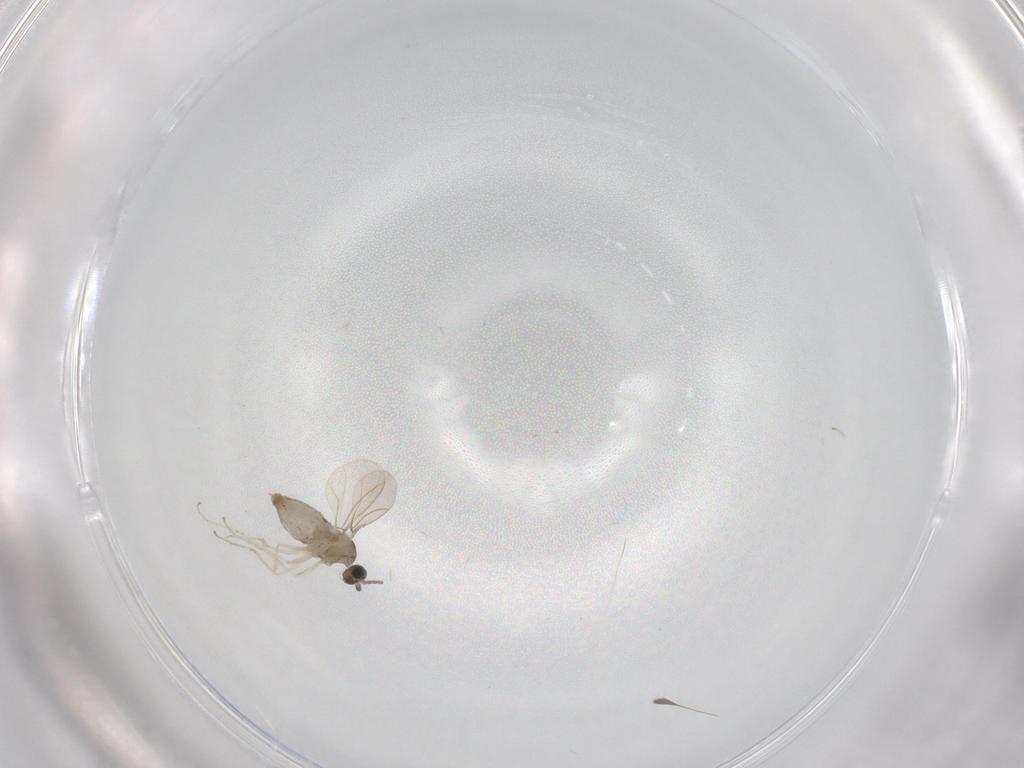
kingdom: Animalia
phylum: Arthropoda
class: Insecta
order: Diptera
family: Cecidomyiidae
